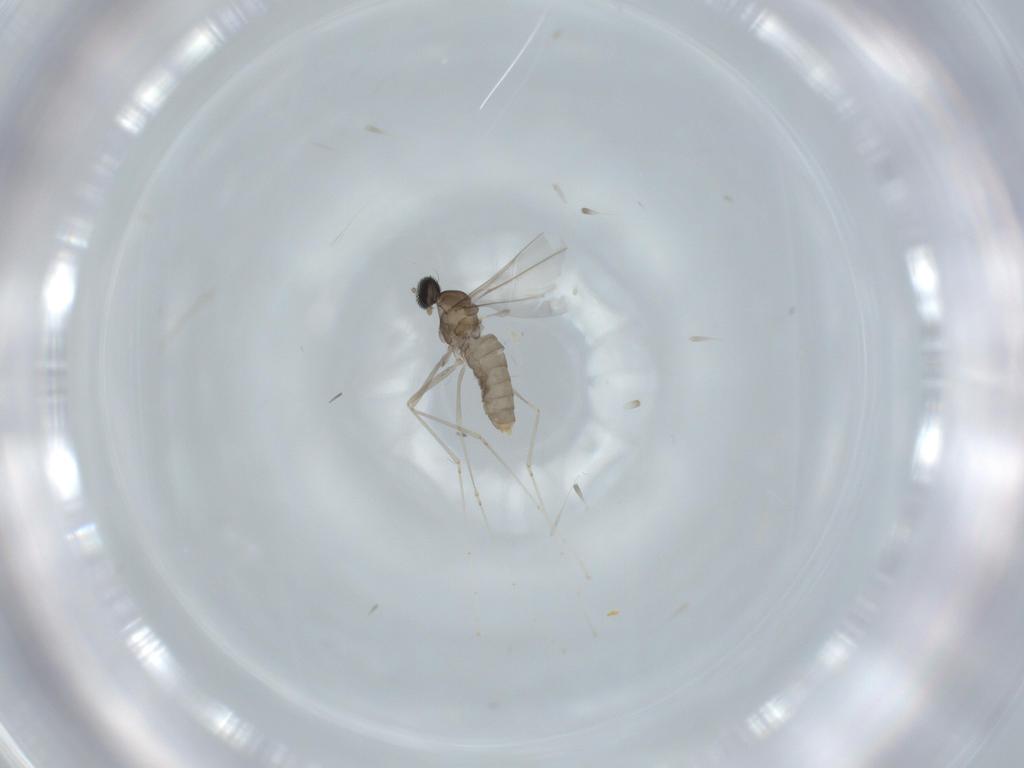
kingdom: Animalia
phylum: Arthropoda
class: Insecta
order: Diptera
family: Cecidomyiidae
